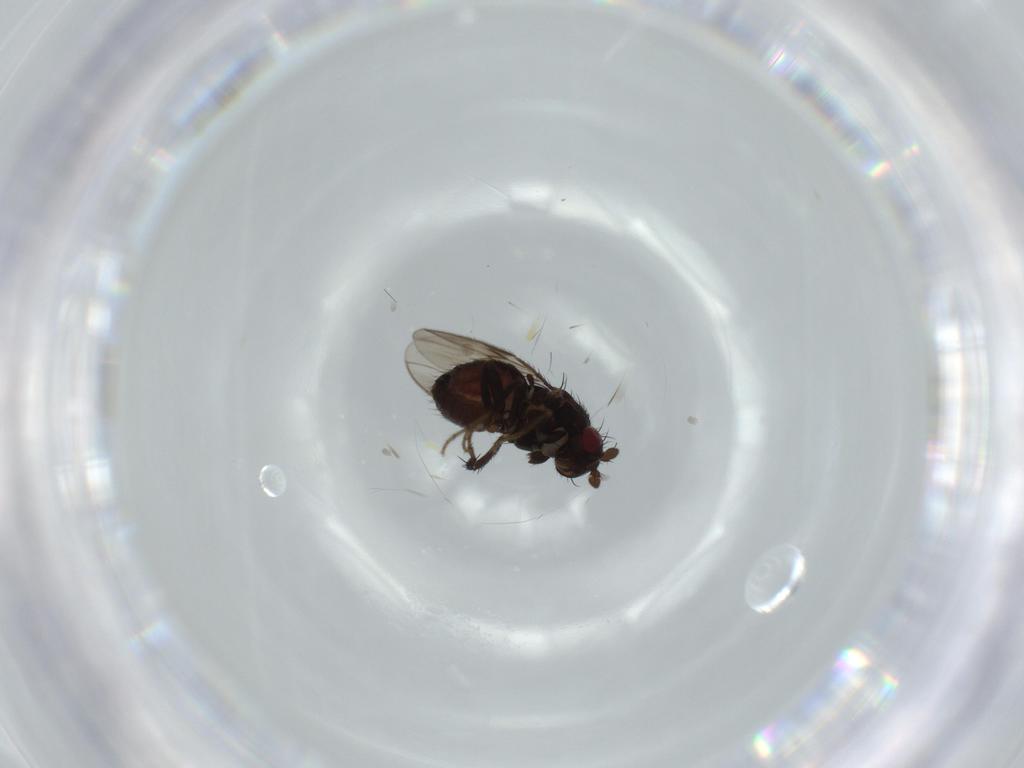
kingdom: Animalia
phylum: Arthropoda
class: Insecta
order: Diptera
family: Sphaeroceridae
